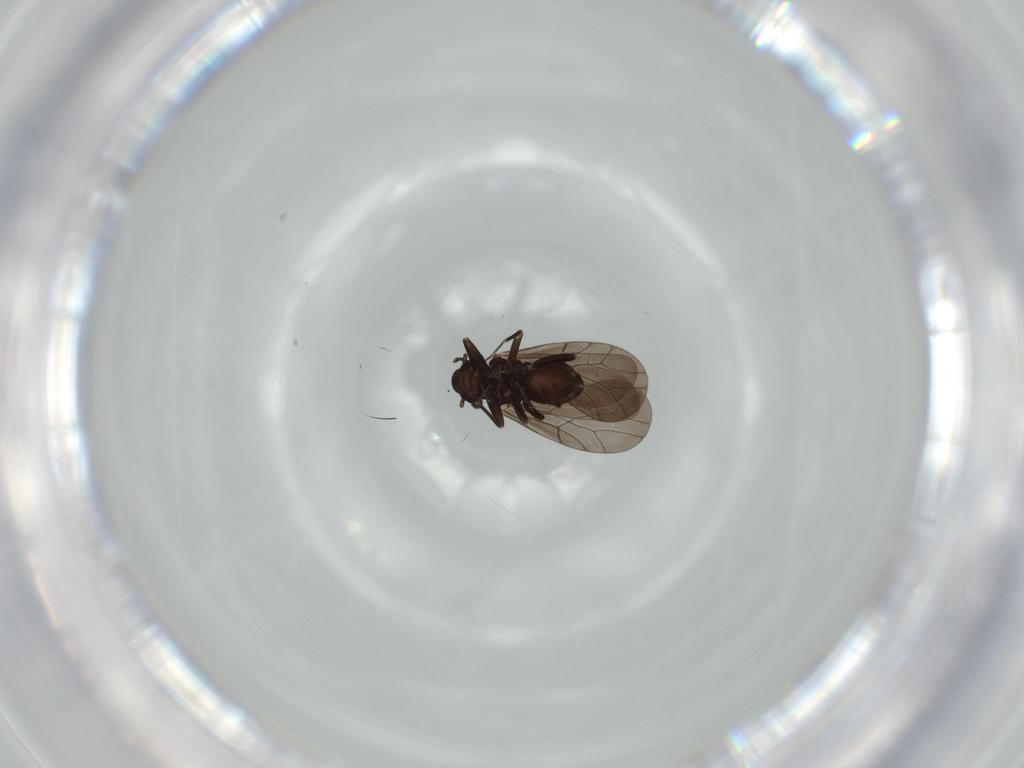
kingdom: Animalia
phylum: Arthropoda
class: Insecta
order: Psocodea
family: Lepidopsocidae
